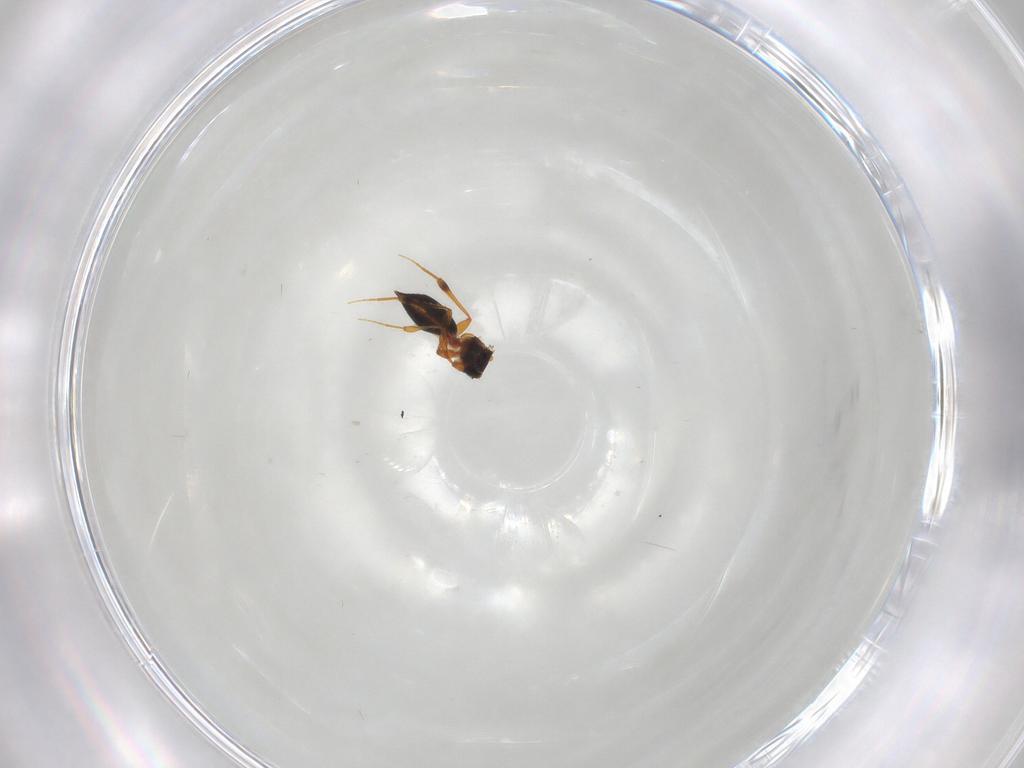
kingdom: Animalia
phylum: Arthropoda
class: Insecta
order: Hymenoptera
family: Platygastridae
